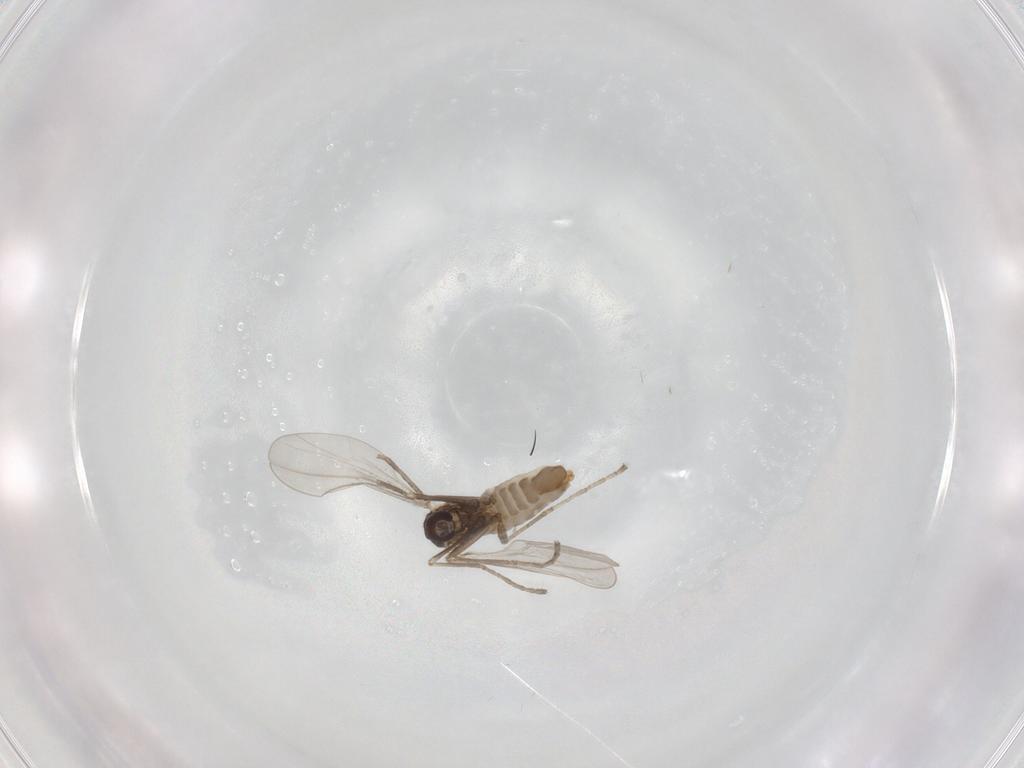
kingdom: Animalia
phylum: Arthropoda
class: Insecta
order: Diptera
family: Cecidomyiidae
